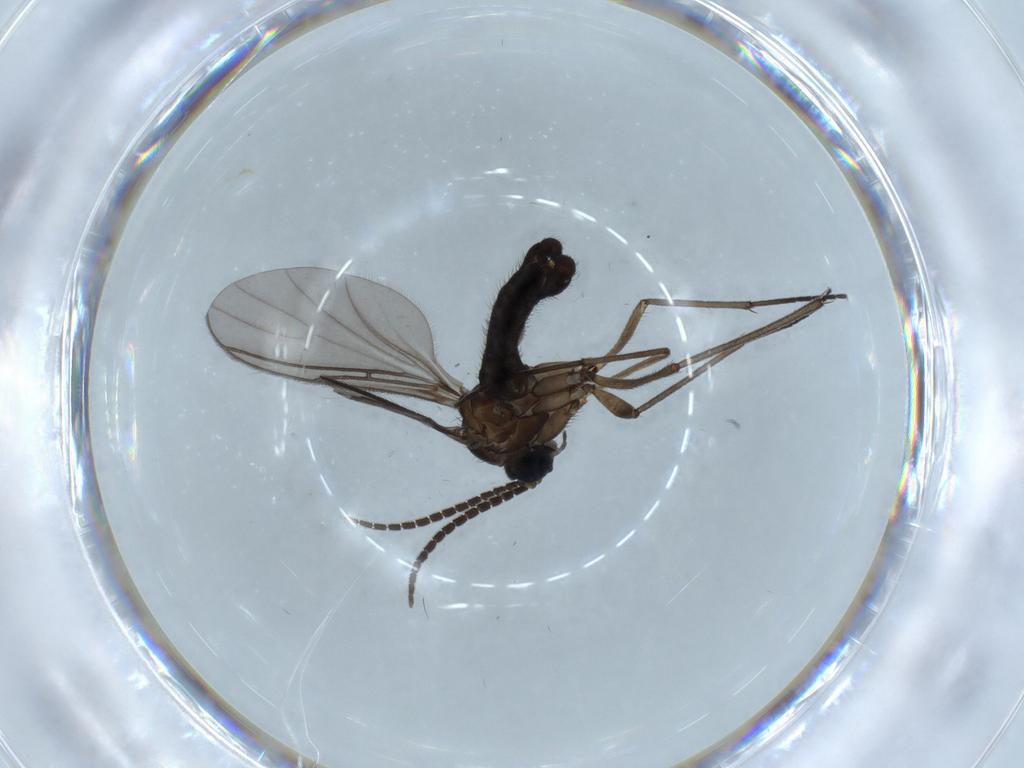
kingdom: Animalia
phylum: Arthropoda
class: Insecta
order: Diptera
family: Sciaridae
